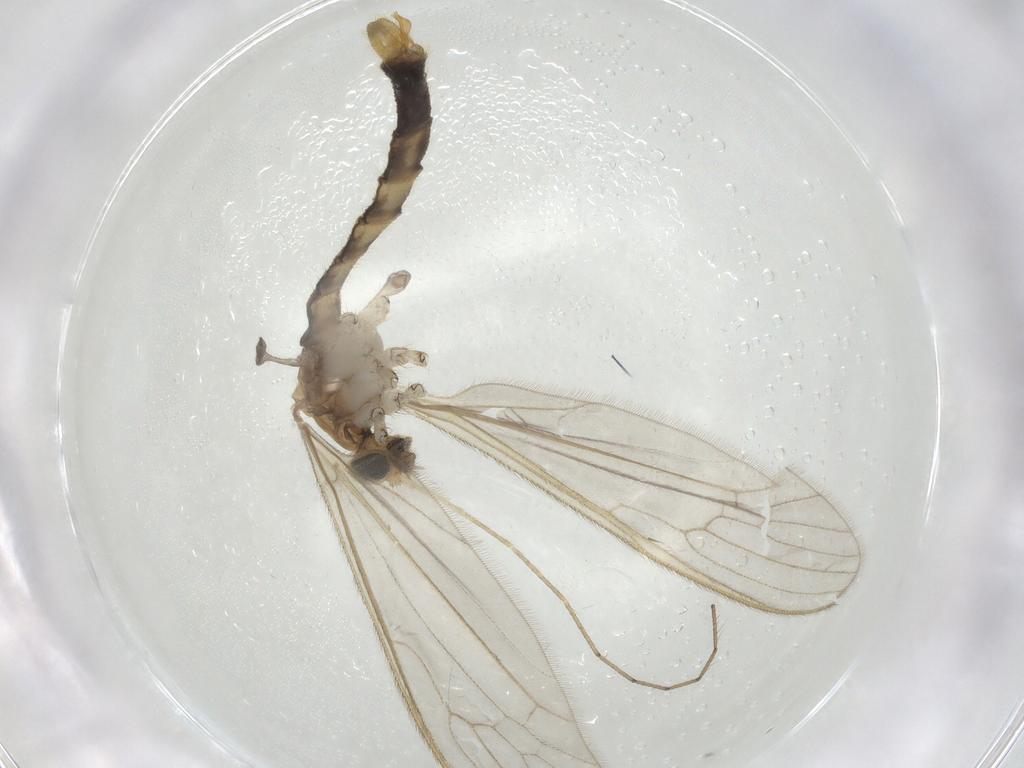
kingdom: Animalia
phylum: Arthropoda
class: Insecta
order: Diptera
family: Limoniidae
